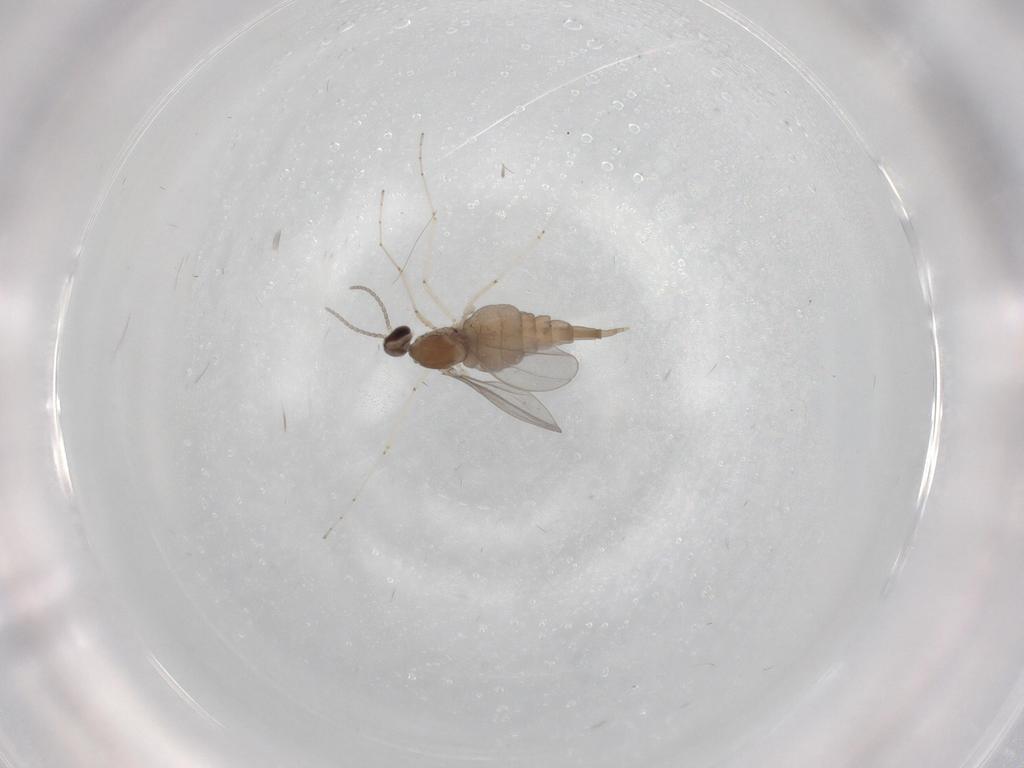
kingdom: Animalia
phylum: Arthropoda
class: Insecta
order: Diptera
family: Cecidomyiidae
